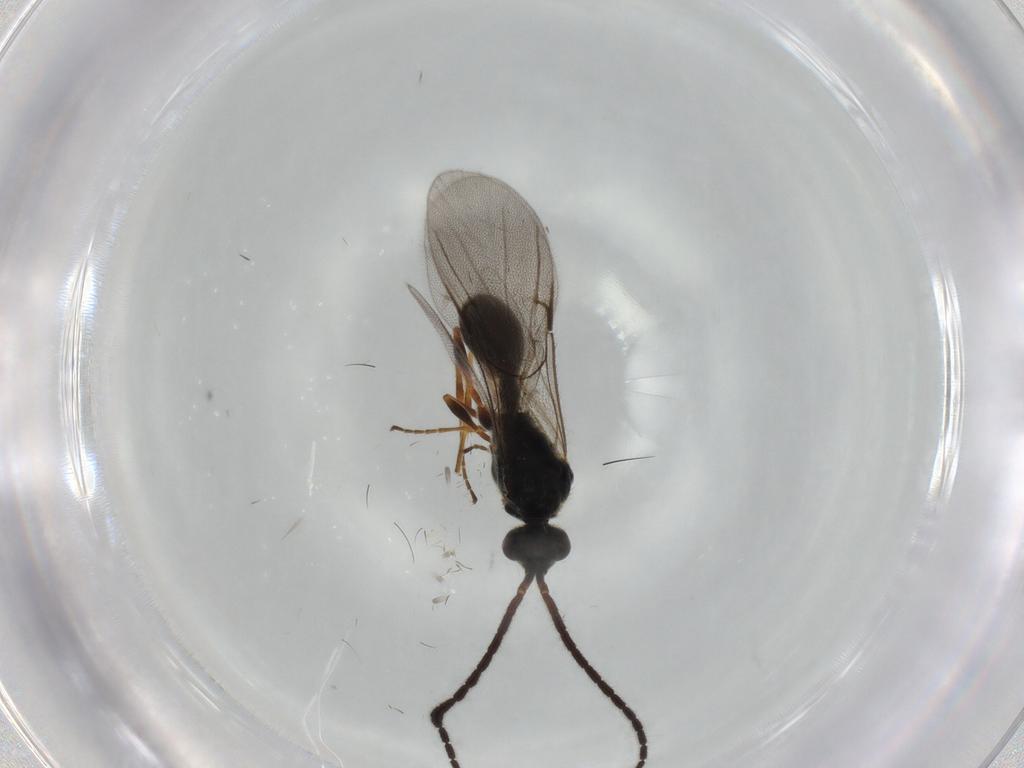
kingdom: Animalia
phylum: Arthropoda
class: Insecta
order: Hymenoptera
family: Diapriidae
